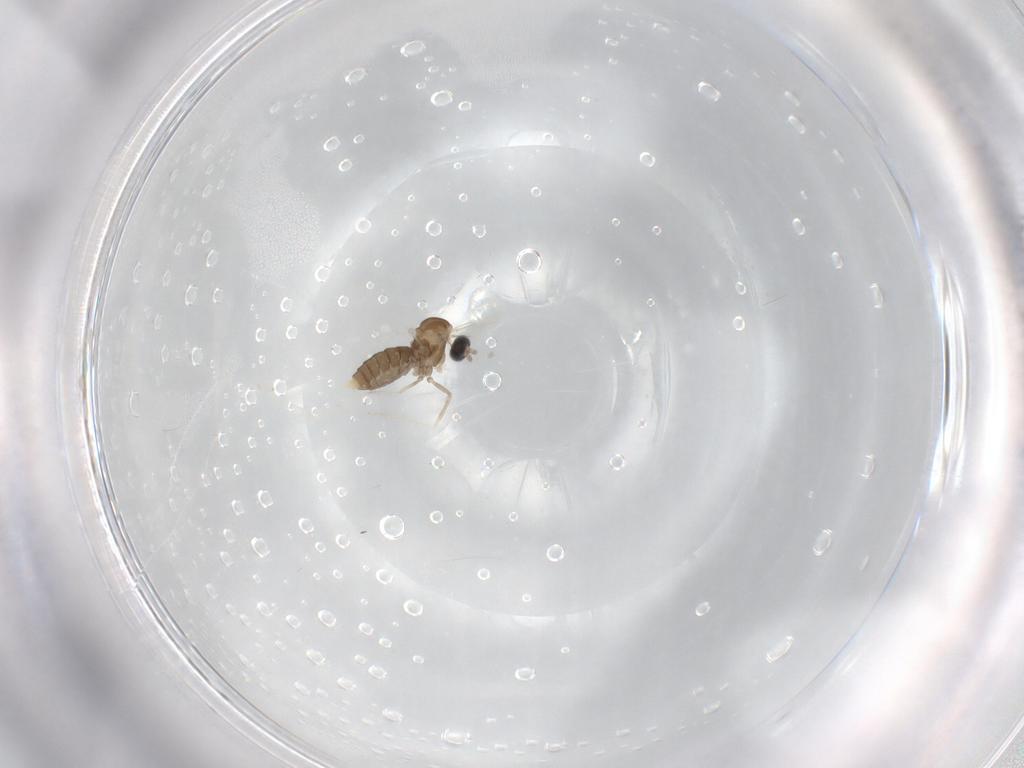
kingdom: Animalia
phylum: Arthropoda
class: Insecta
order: Diptera
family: Cecidomyiidae
